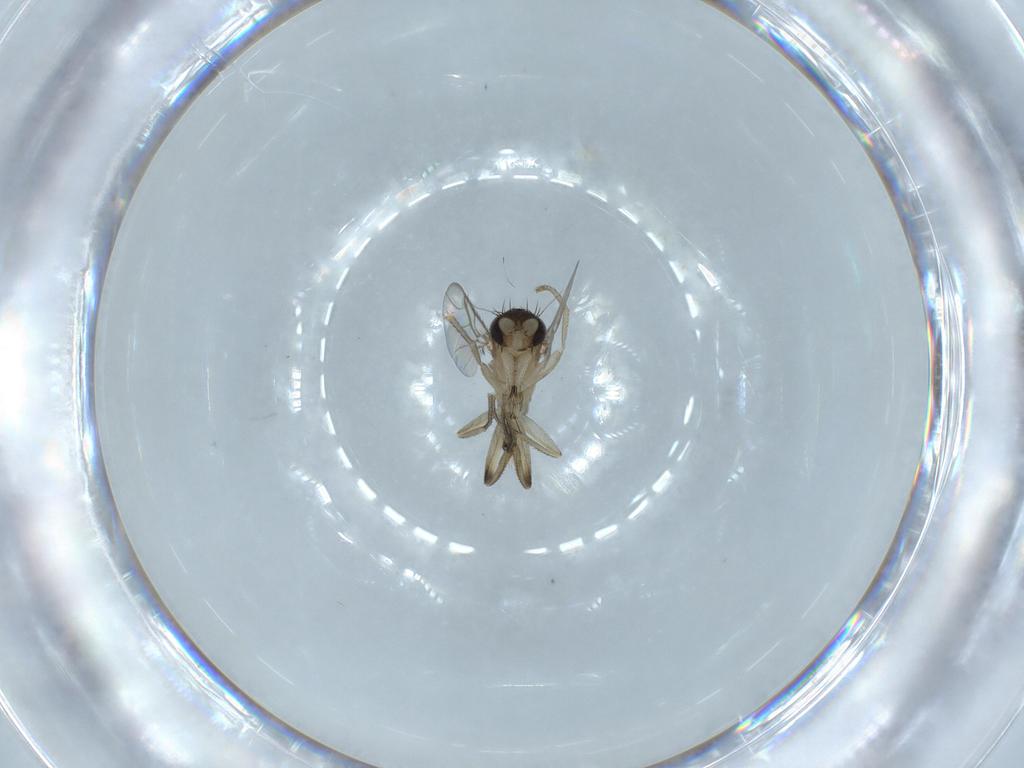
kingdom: Animalia
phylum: Arthropoda
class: Insecta
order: Diptera
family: Phoridae
